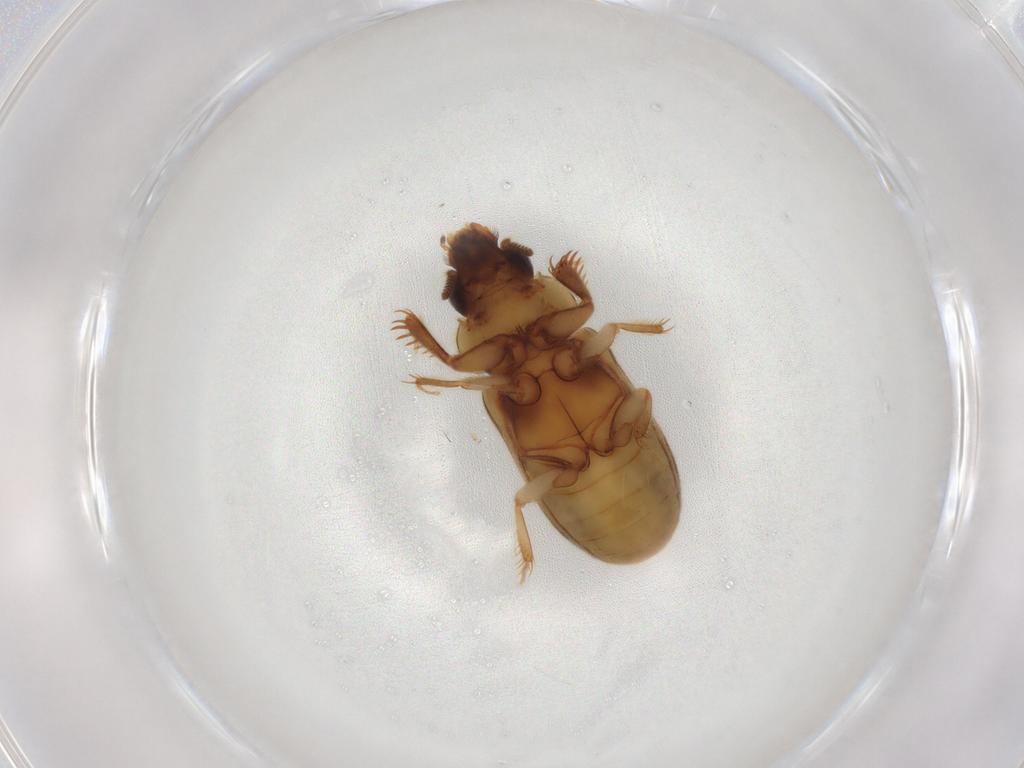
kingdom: Animalia
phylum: Arthropoda
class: Insecta
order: Coleoptera
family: Heteroceridae
